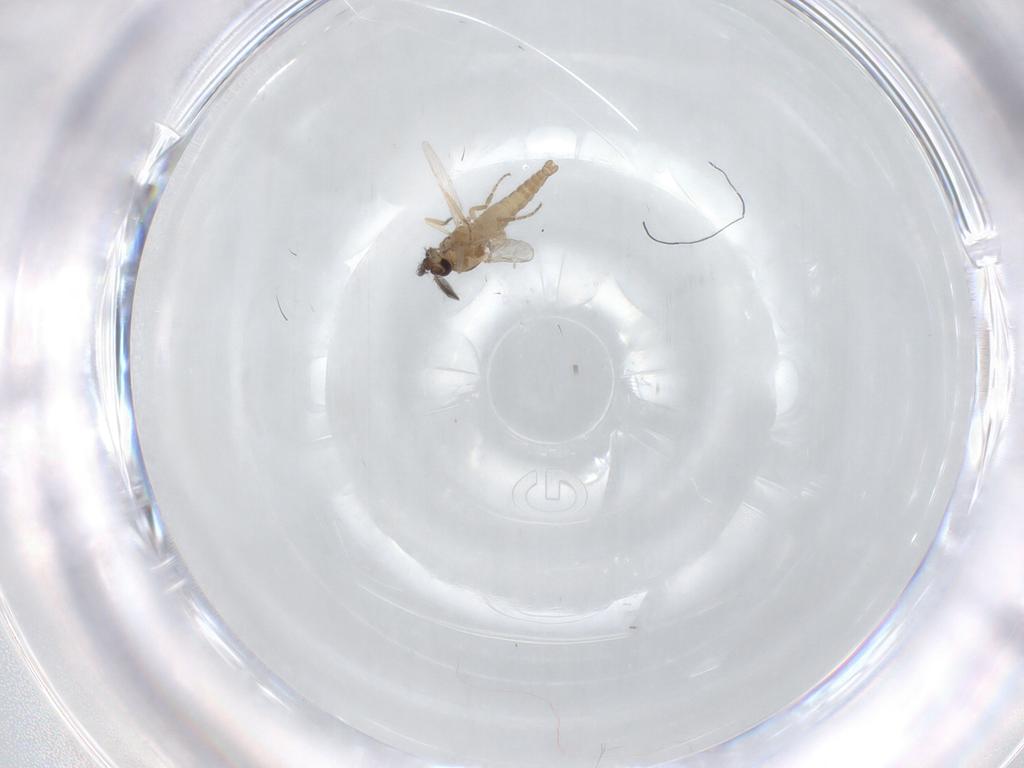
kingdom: Animalia
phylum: Arthropoda
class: Insecta
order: Diptera
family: Ceratopogonidae
